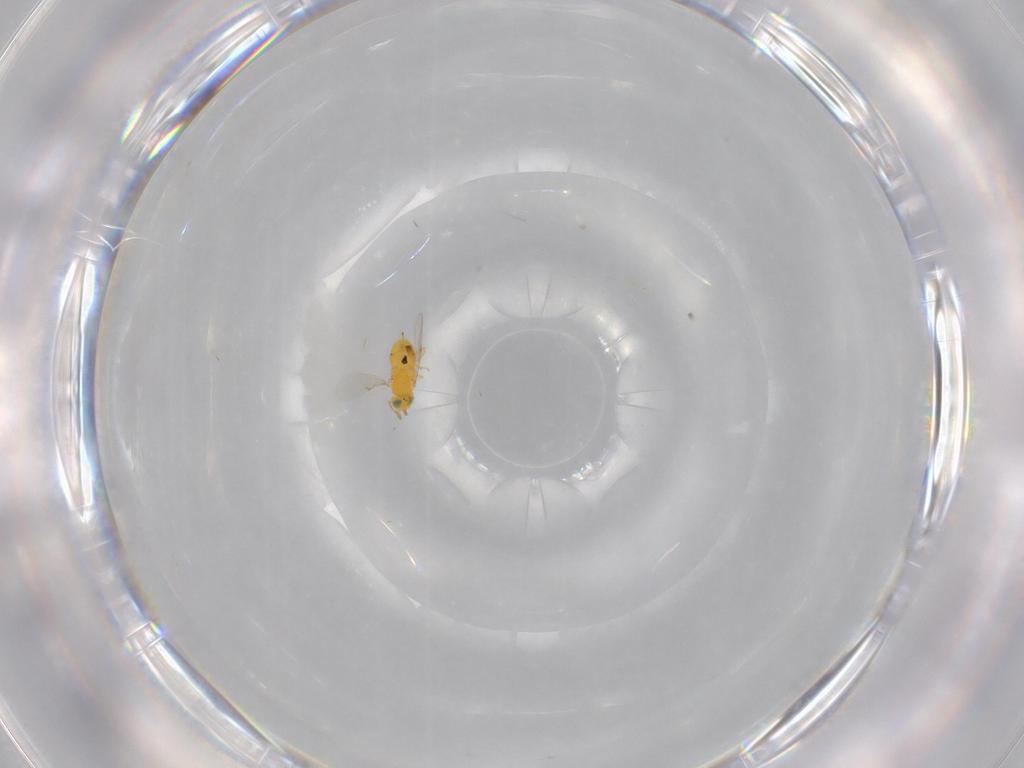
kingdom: Animalia
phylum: Arthropoda
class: Insecta
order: Hymenoptera
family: Encyrtidae
